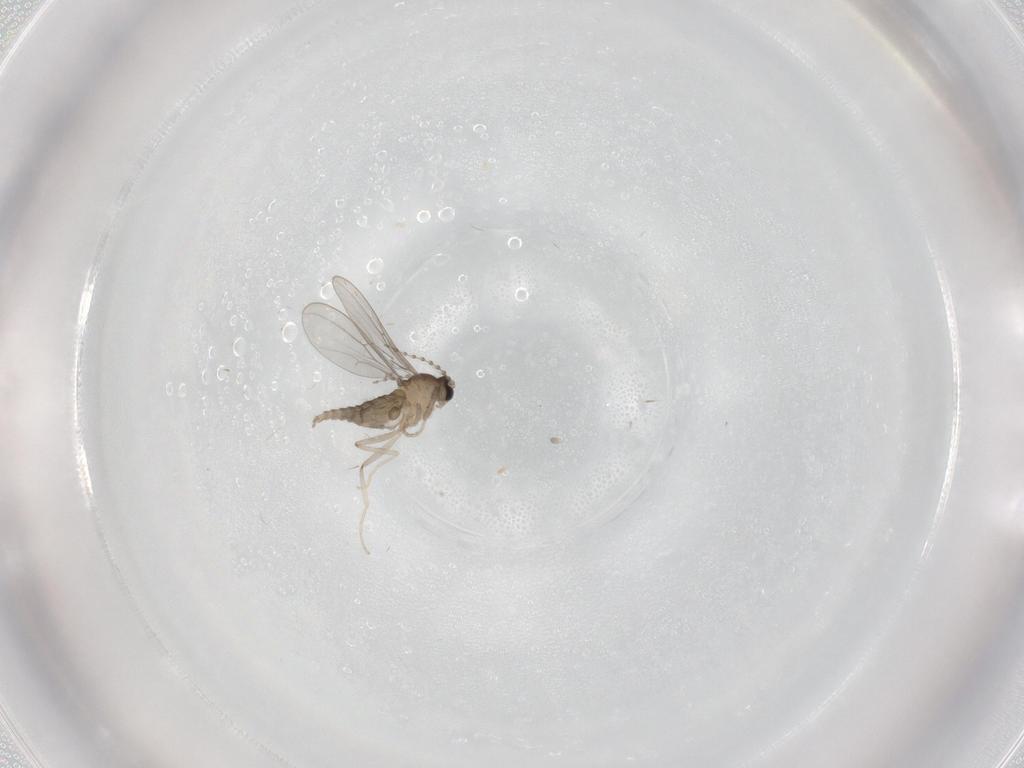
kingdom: Animalia
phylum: Arthropoda
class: Insecta
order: Diptera
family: Cecidomyiidae
